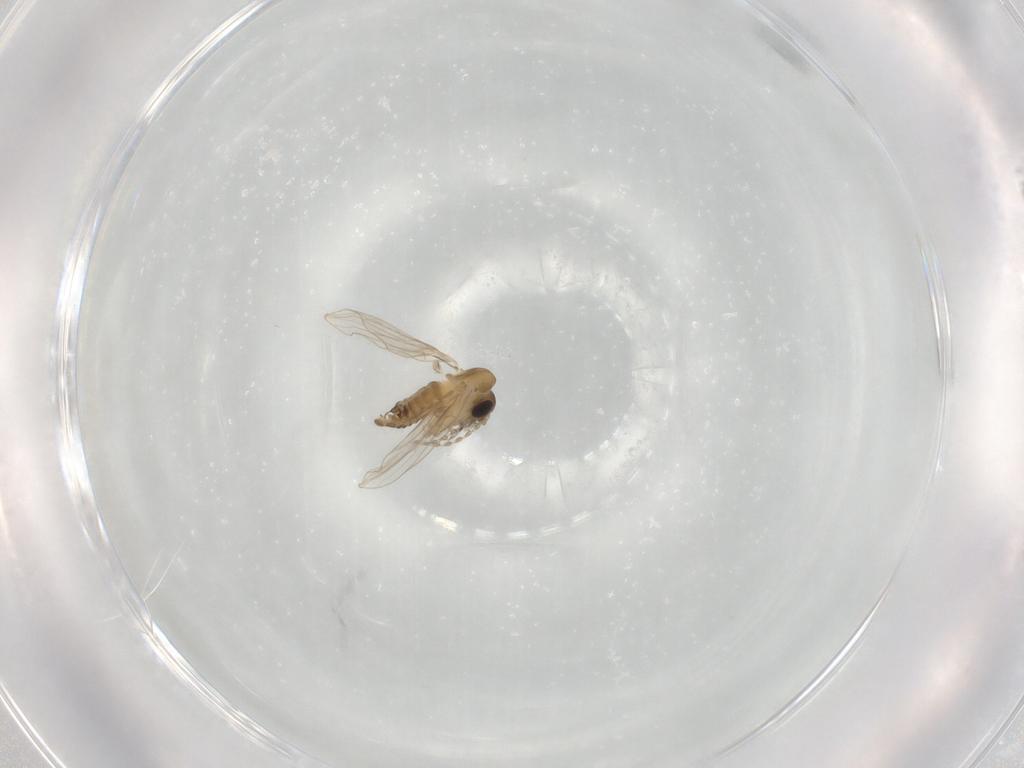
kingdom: Animalia
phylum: Arthropoda
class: Insecta
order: Diptera
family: Psychodidae
